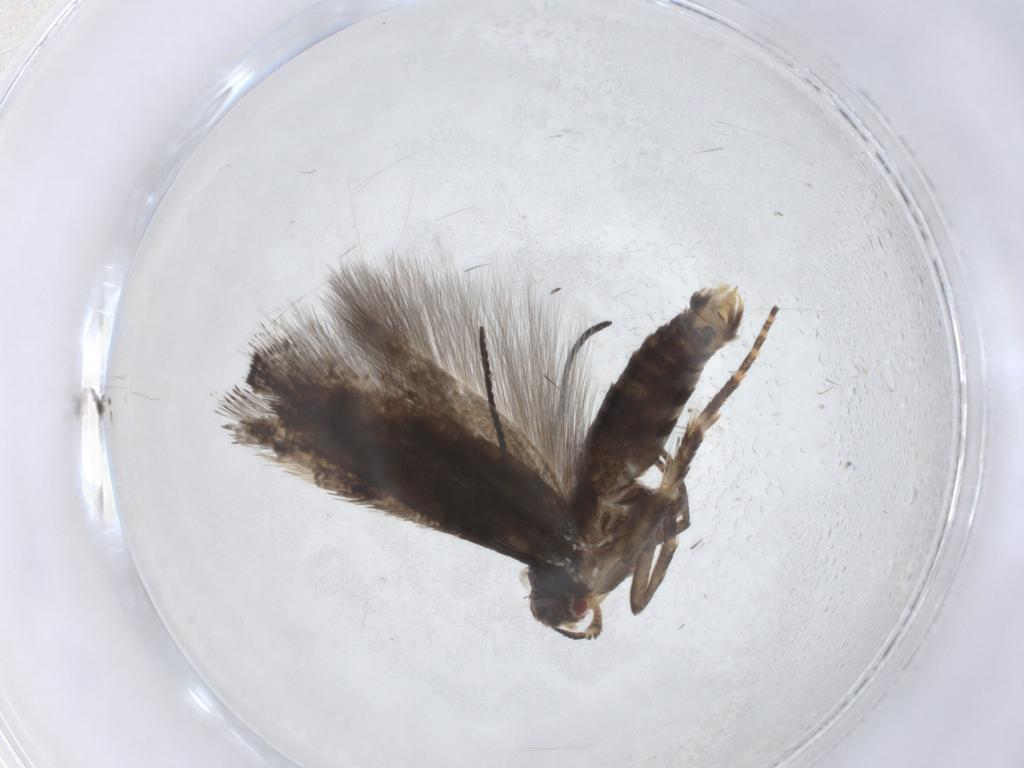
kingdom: Animalia
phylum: Arthropoda
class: Insecta
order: Lepidoptera
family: Momphidae
